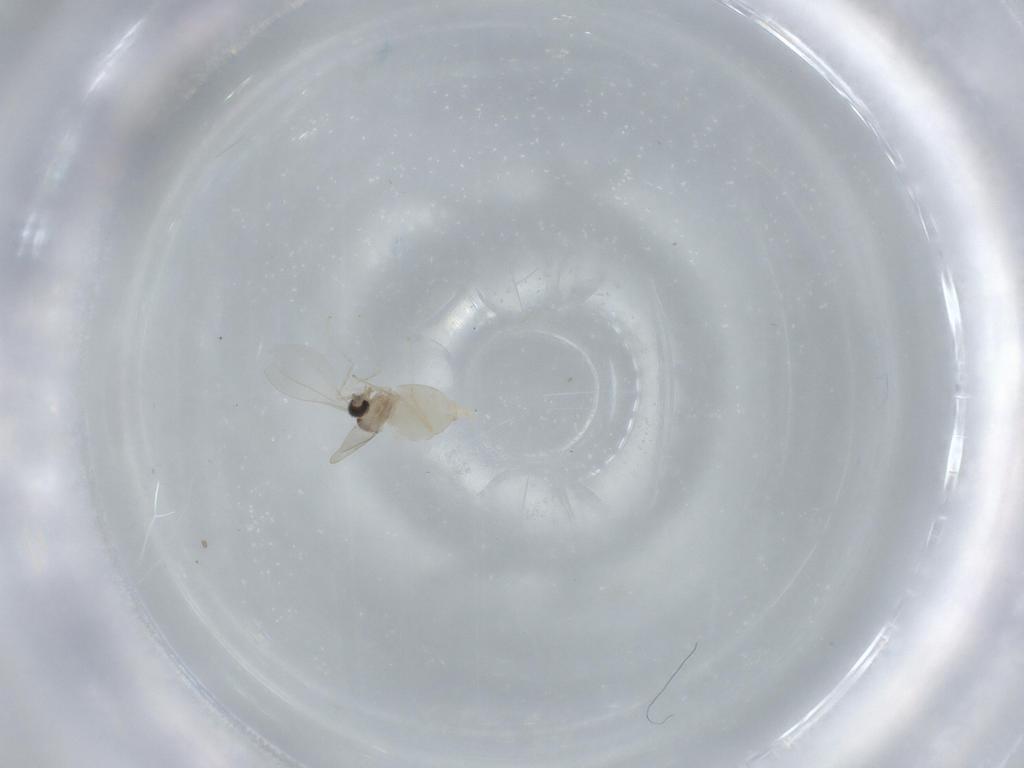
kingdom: Animalia
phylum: Arthropoda
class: Insecta
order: Diptera
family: Cecidomyiidae
